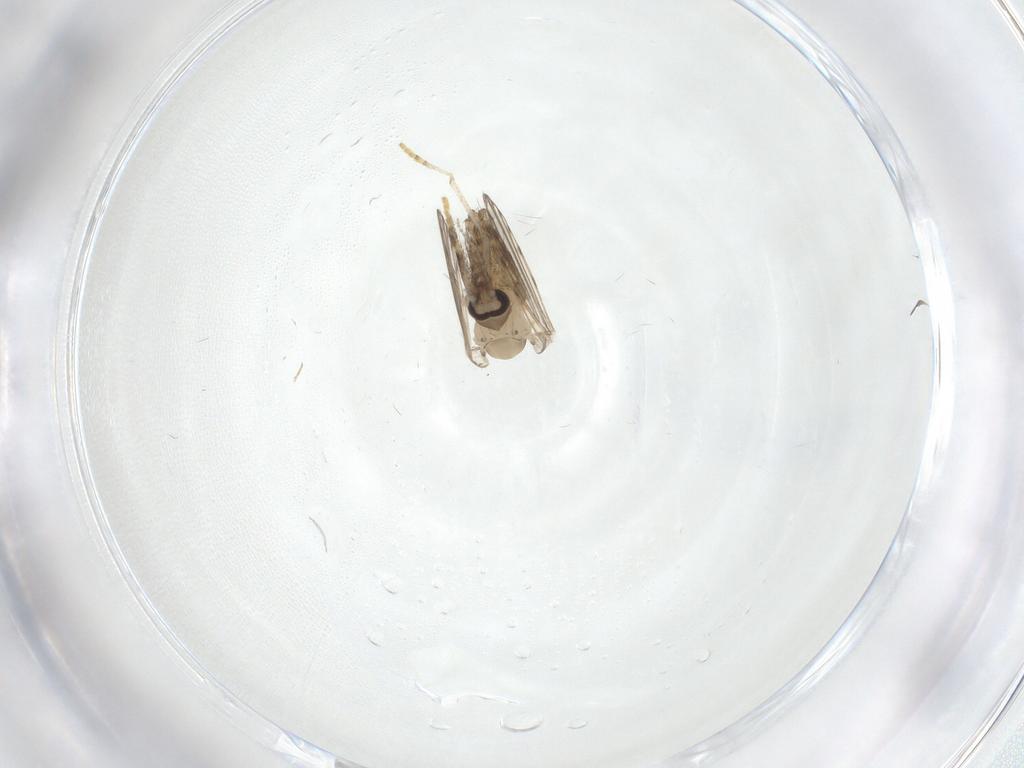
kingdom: Animalia
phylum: Arthropoda
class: Insecta
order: Diptera
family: Psychodidae
